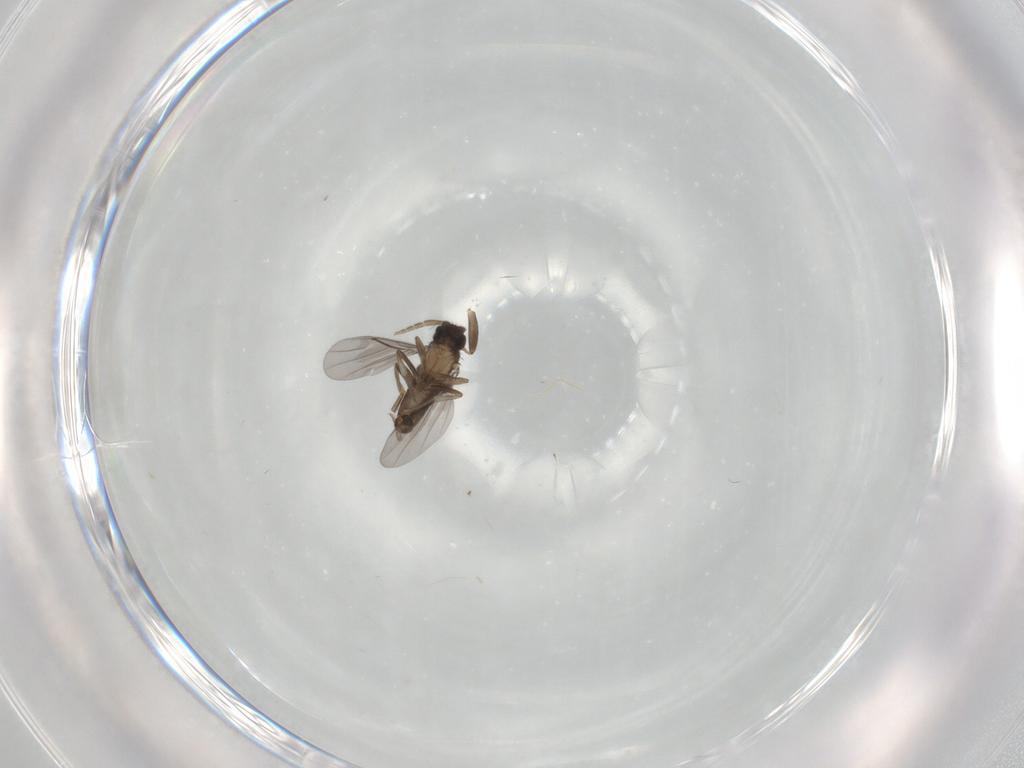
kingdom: Animalia
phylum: Arthropoda
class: Insecta
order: Diptera
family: Limoniidae
